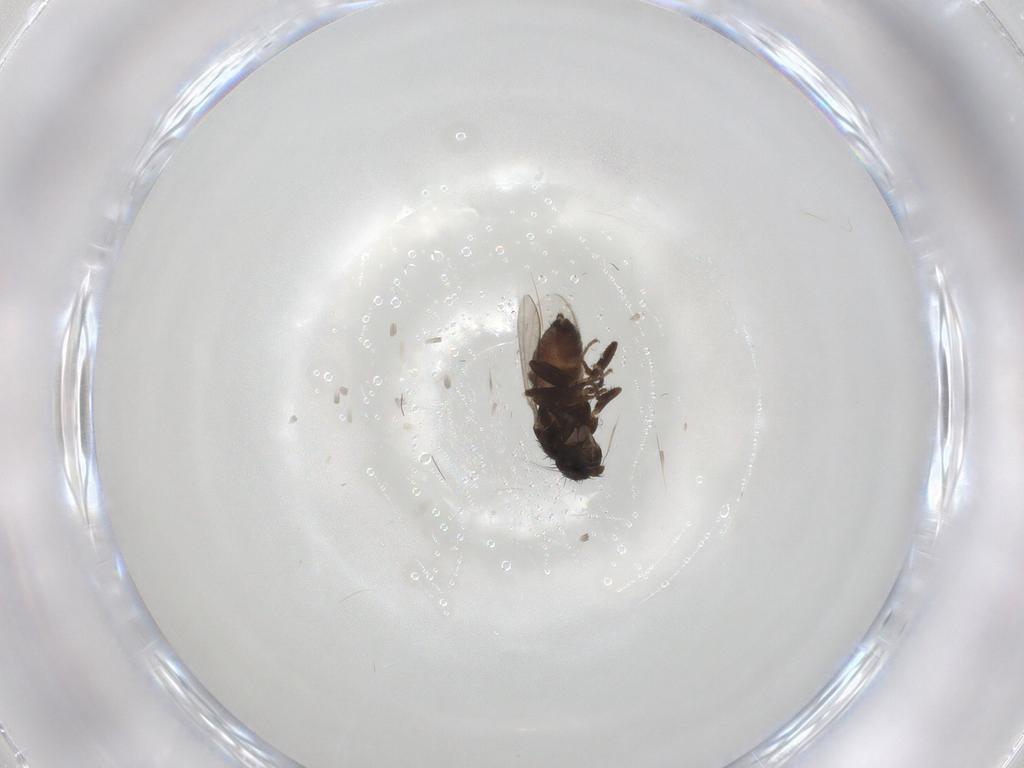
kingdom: Animalia
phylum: Arthropoda
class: Insecta
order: Diptera
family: Sphaeroceridae
